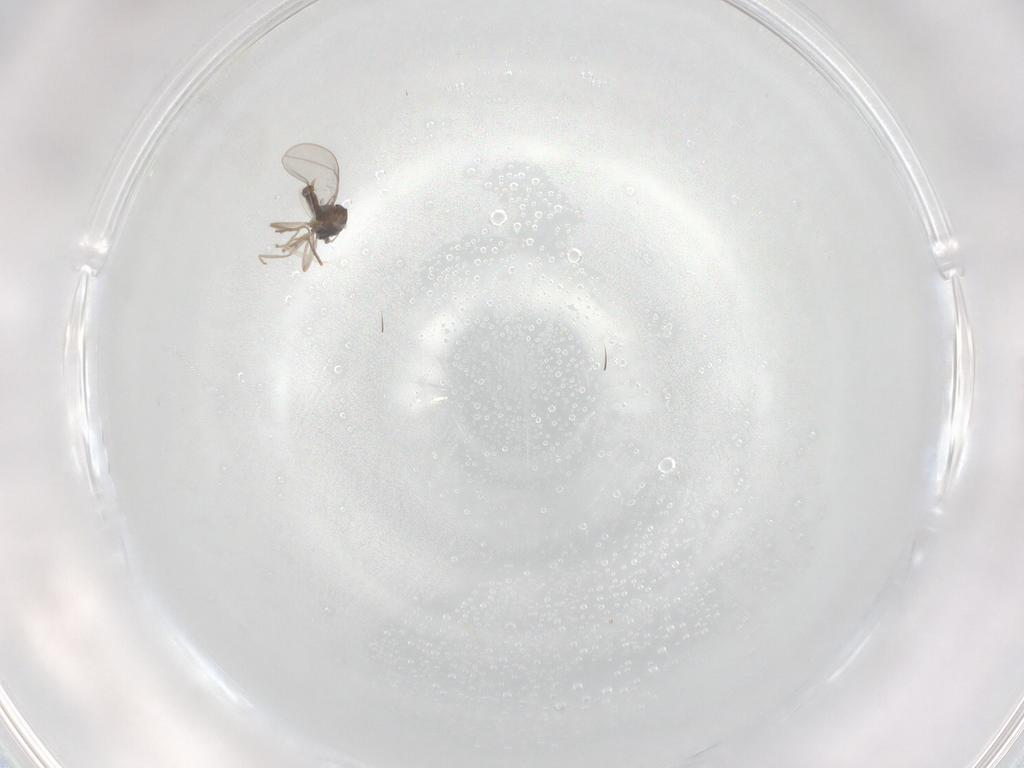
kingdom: Animalia
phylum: Arthropoda
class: Insecta
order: Diptera
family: Cecidomyiidae
